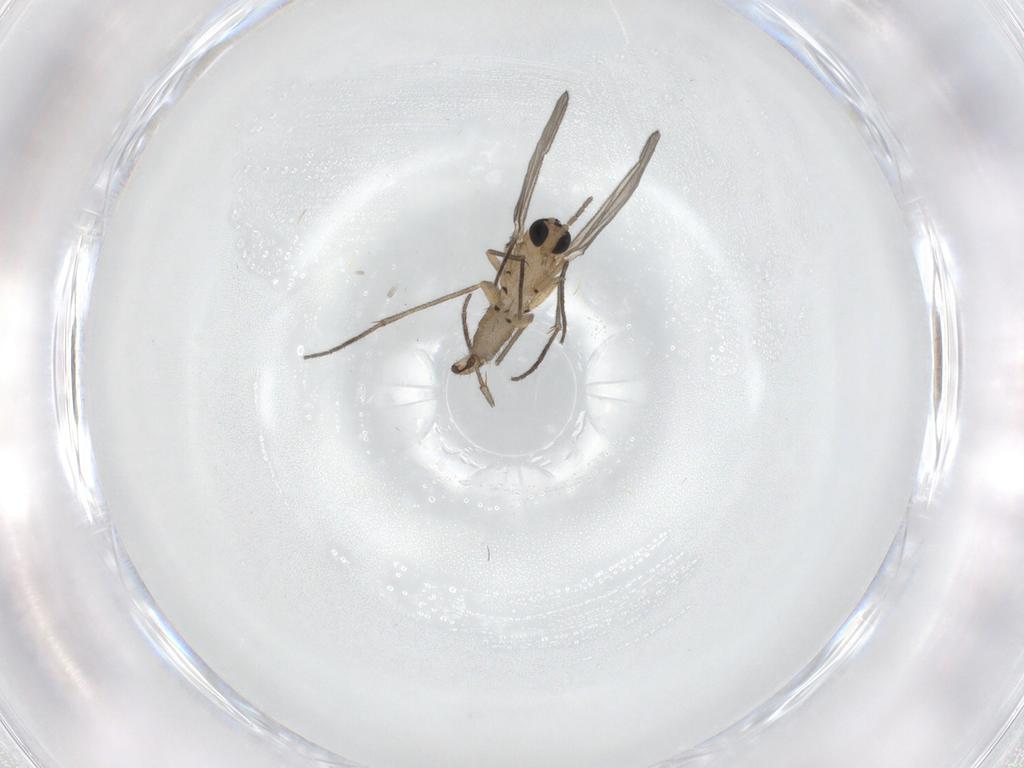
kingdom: Animalia
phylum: Arthropoda
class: Insecta
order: Diptera
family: Sciaridae
